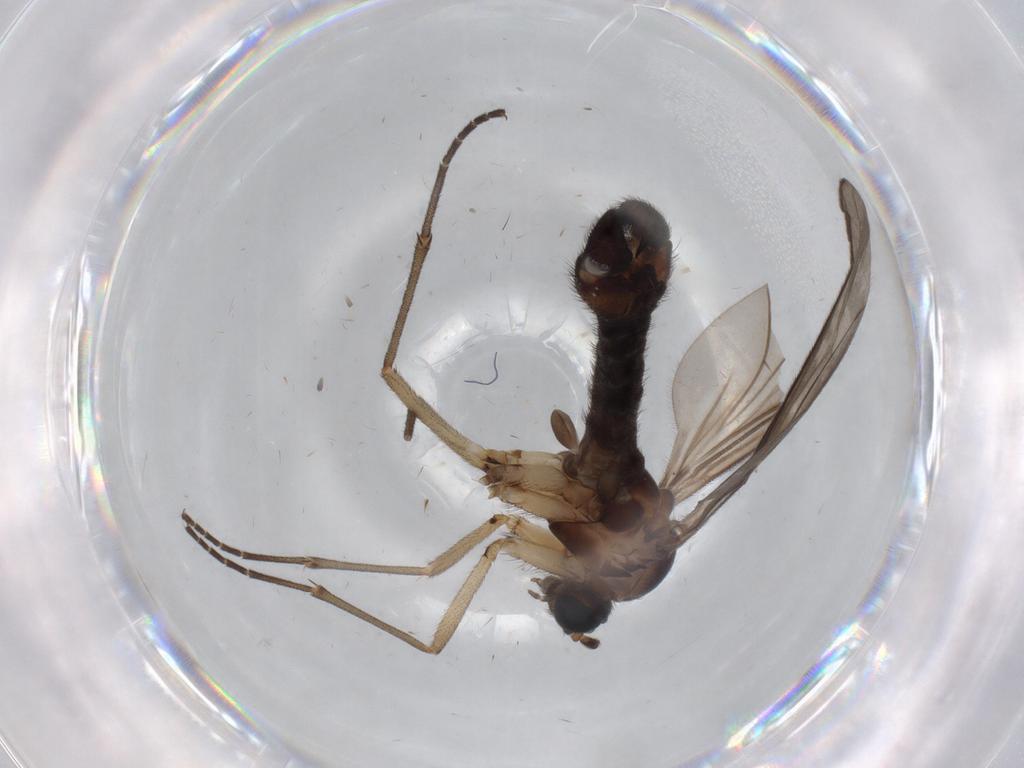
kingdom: Animalia
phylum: Arthropoda
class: Insecta
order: Diptera
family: Sciaridae
